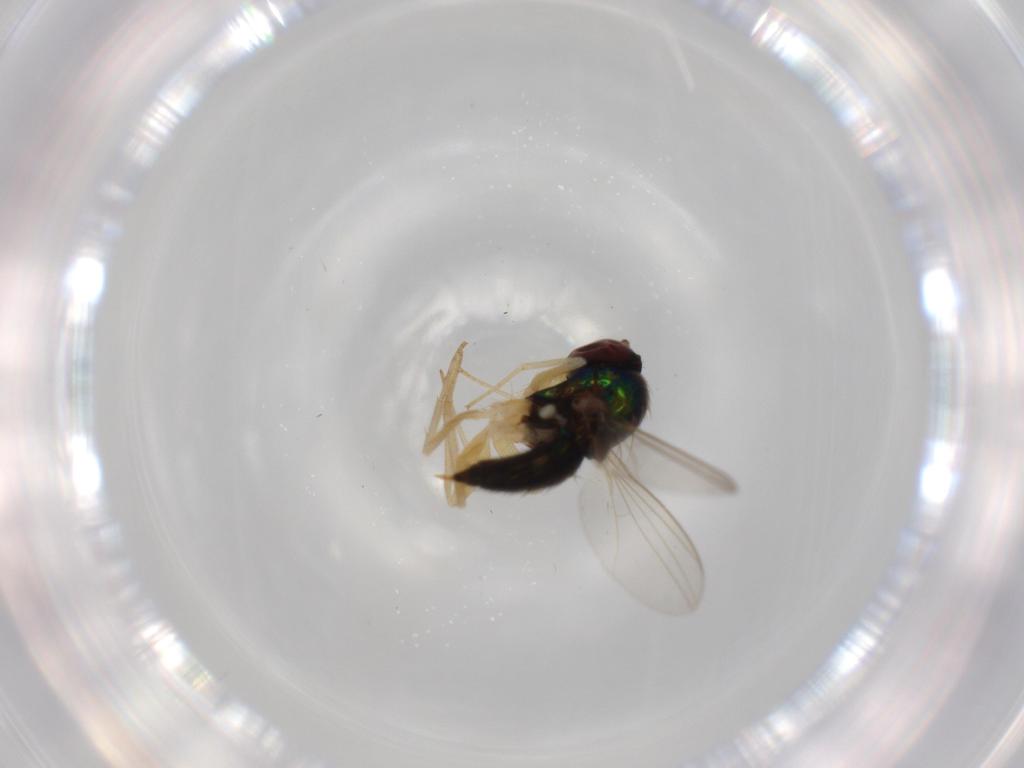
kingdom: Animalia
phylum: Arthropoda
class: Insecta
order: Diptera
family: Dolichopodidae
